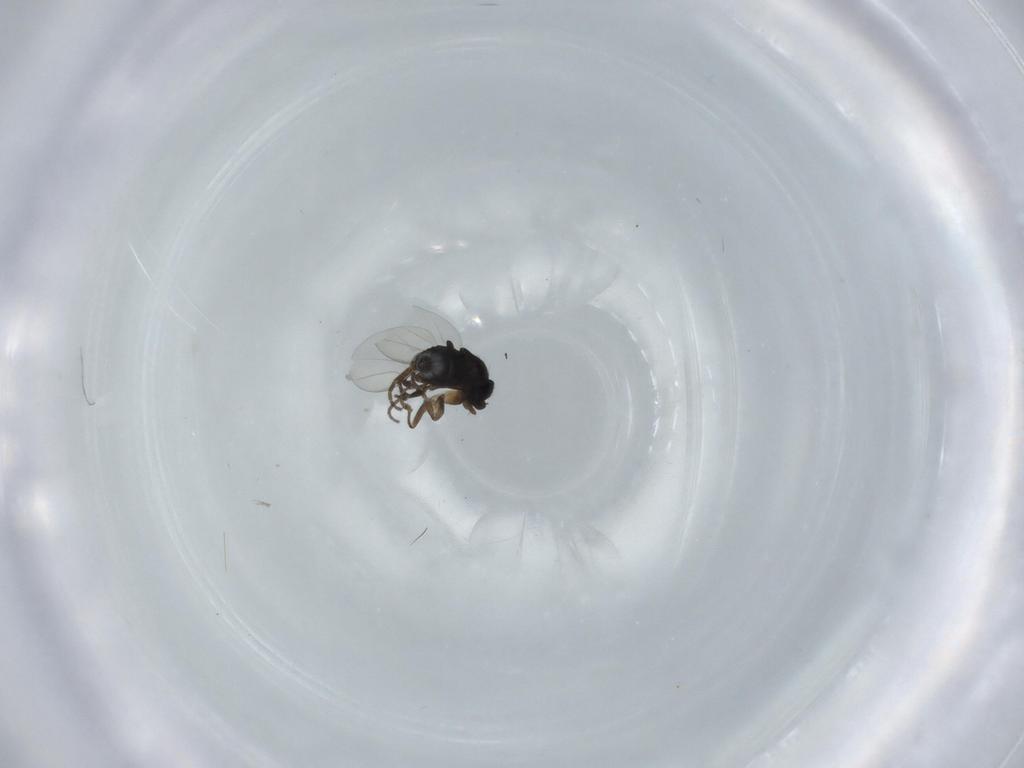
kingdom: Animalia
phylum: Arthropoda
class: Insecta
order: Diptera
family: Phoridae
